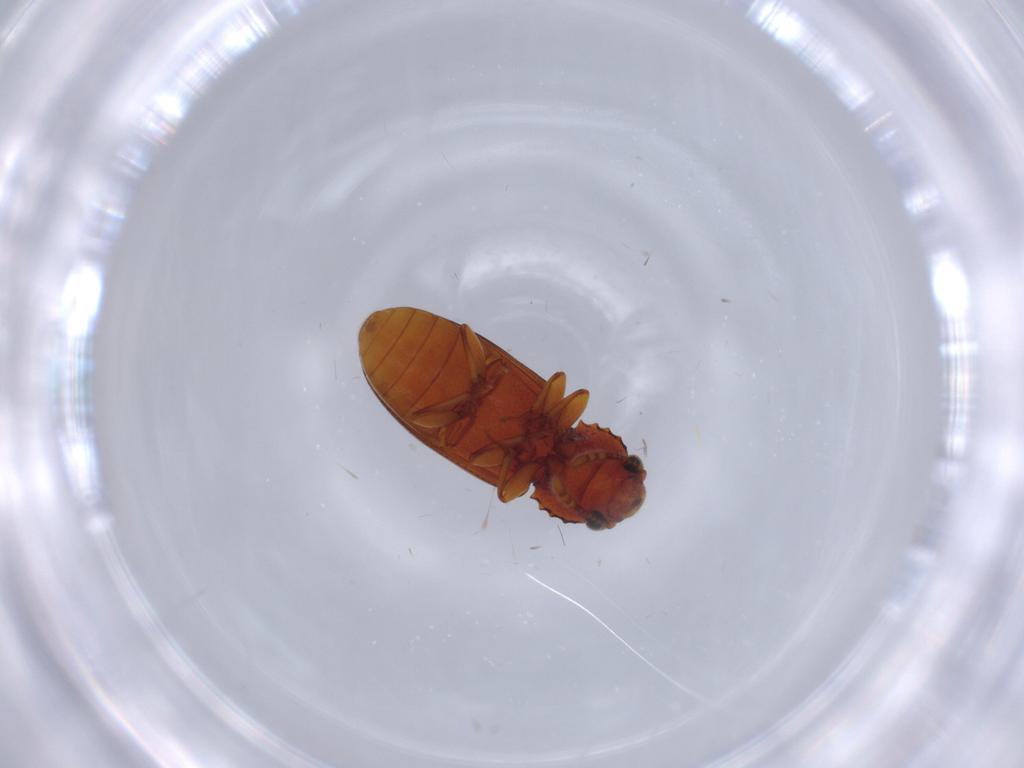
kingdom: Animalia
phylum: Arthropoda
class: Insecta
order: Coleoptera
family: Salpingidae
